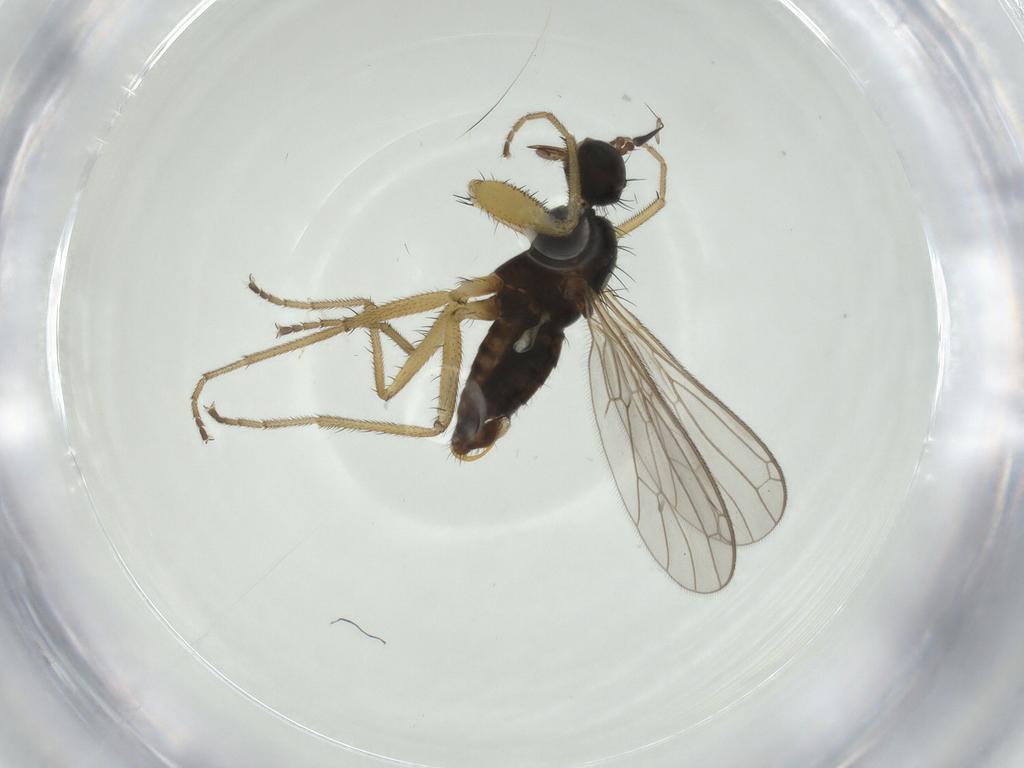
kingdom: Animalia
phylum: Arthropoda
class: Insecta
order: Diptera
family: Empididae
